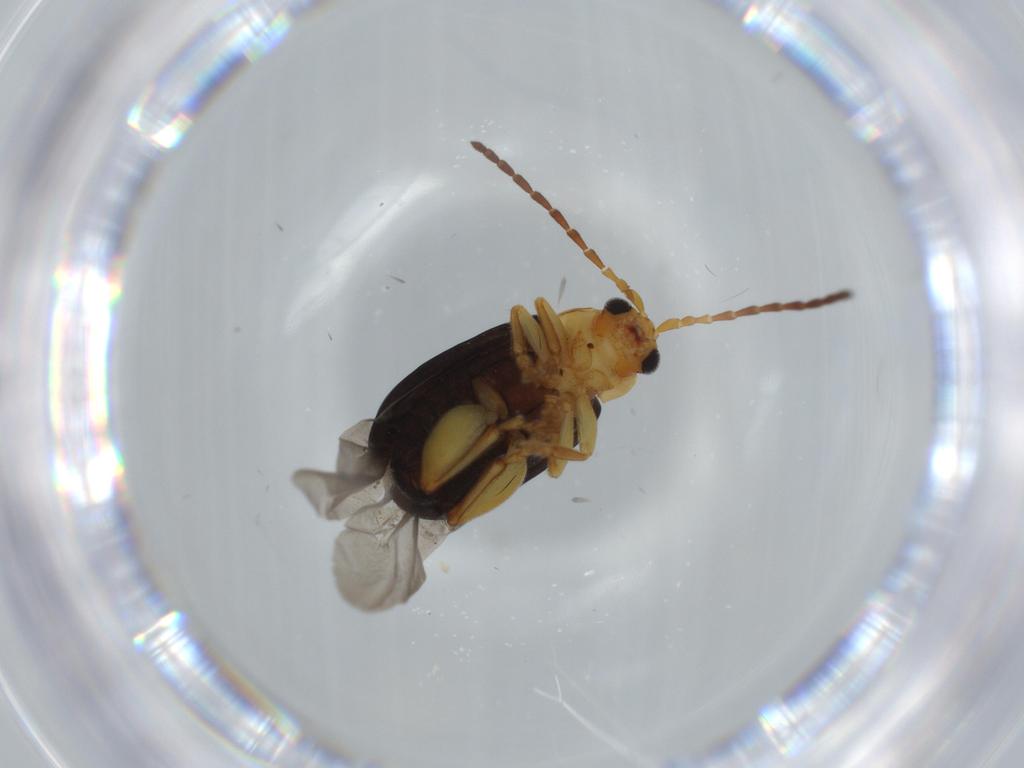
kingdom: Animalia
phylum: Arthropoda
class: Insecta
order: Coleoptera
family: Chrysomelidae
